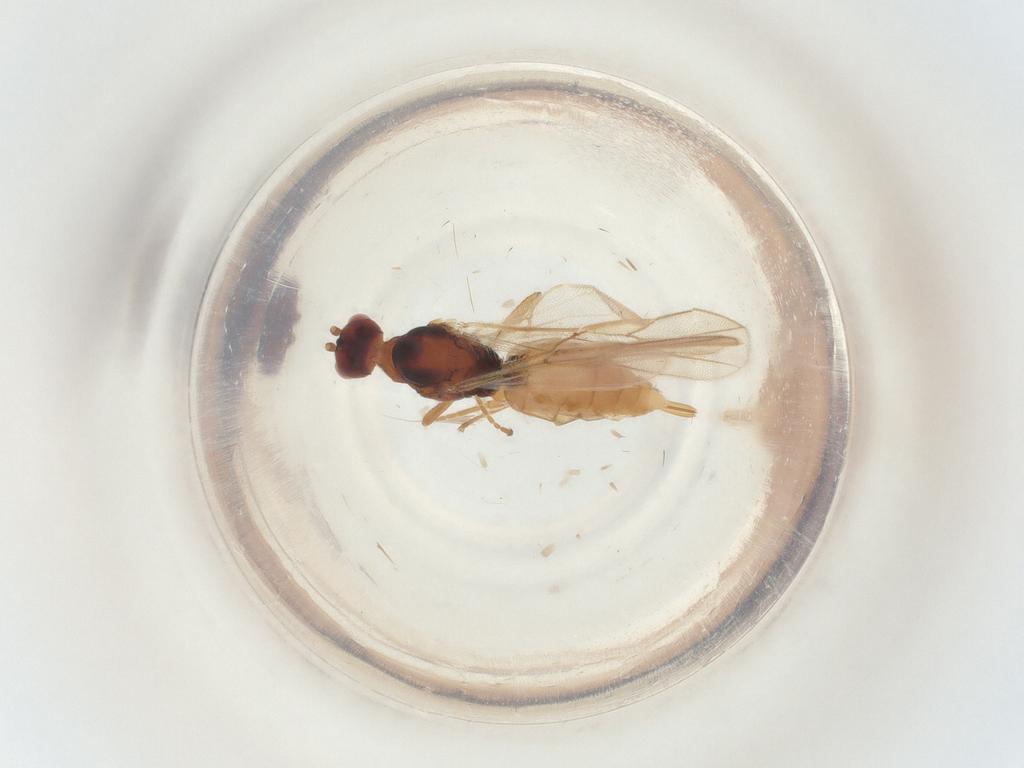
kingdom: Animalia
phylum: Arthropoda
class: Insecta
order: Hymenoptera
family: Braconidae
